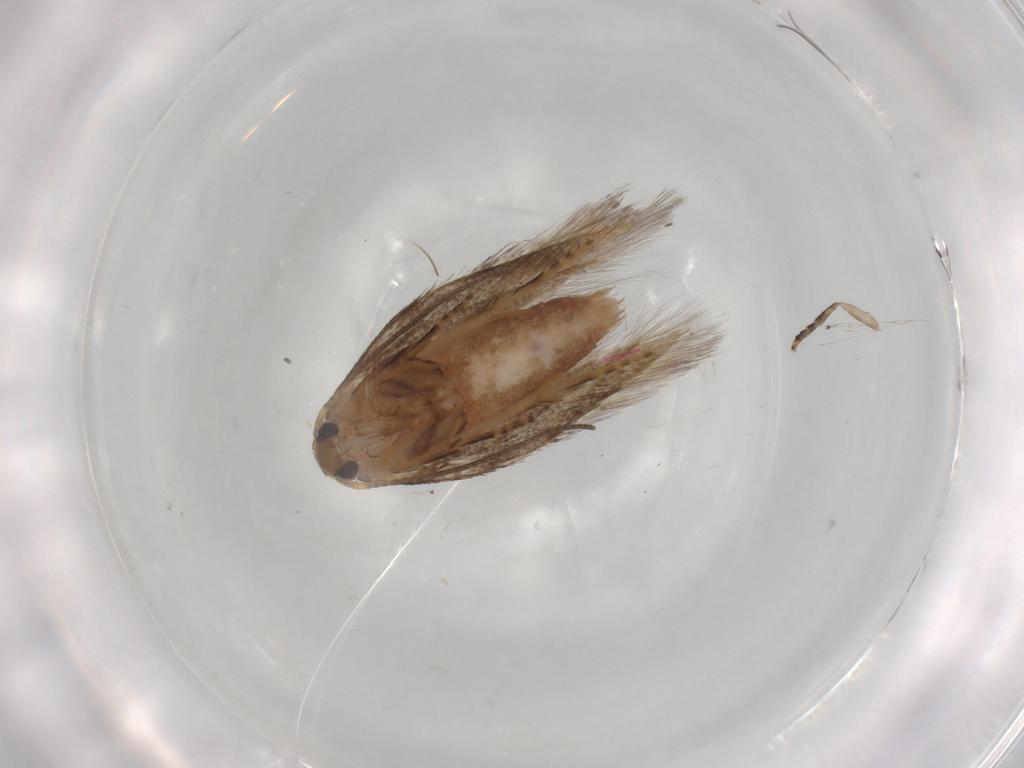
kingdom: Animalia
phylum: Arthropoda
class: Insecta
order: Lepidoptera
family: Elachistidae
